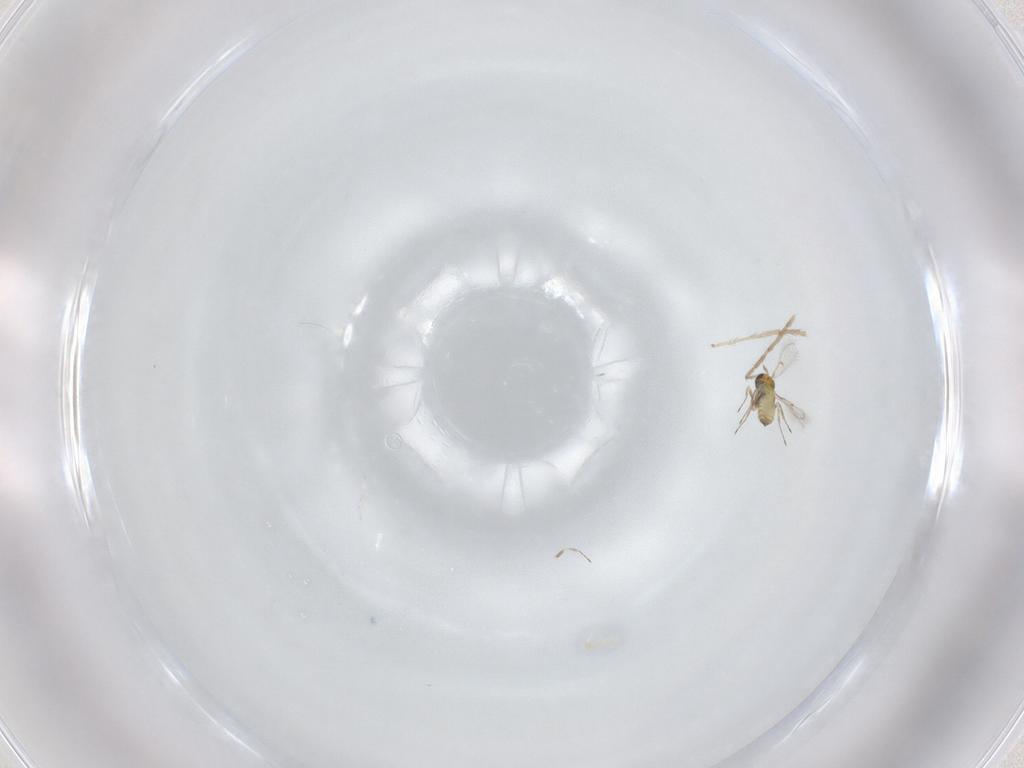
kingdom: Animalia
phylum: Arthropoda
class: Insecta
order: Hymenoptera
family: Trichogrammatidae
